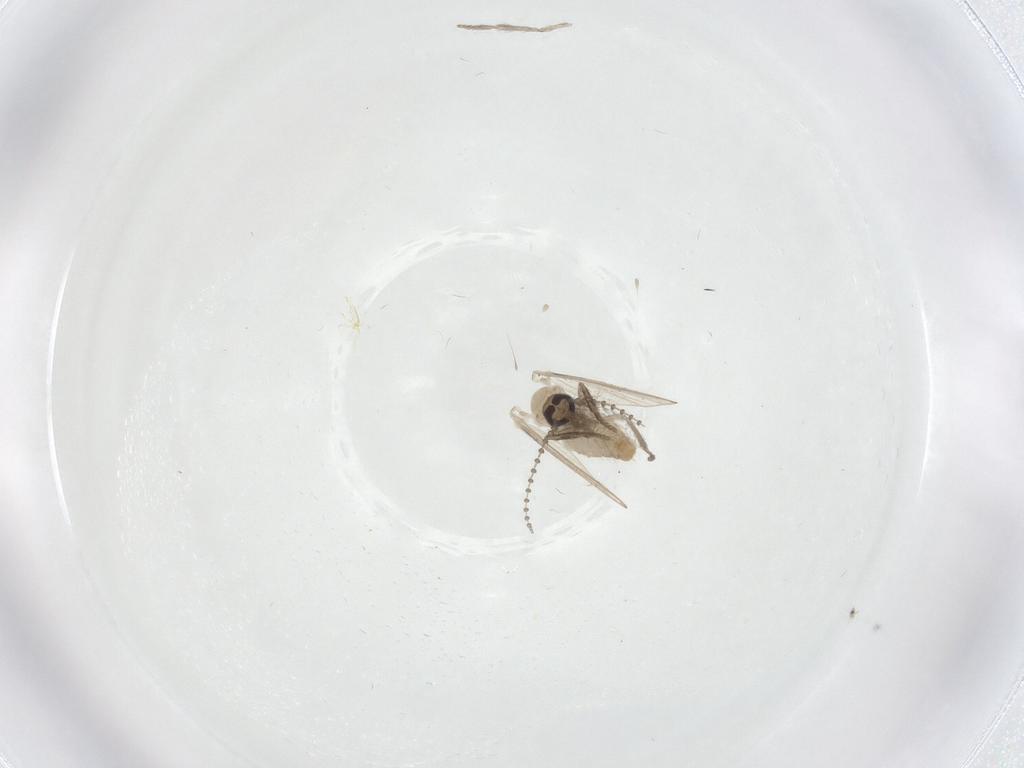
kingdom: Animalia
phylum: Arthropoda
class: Insecta
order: Diptera
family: Psychodidae
